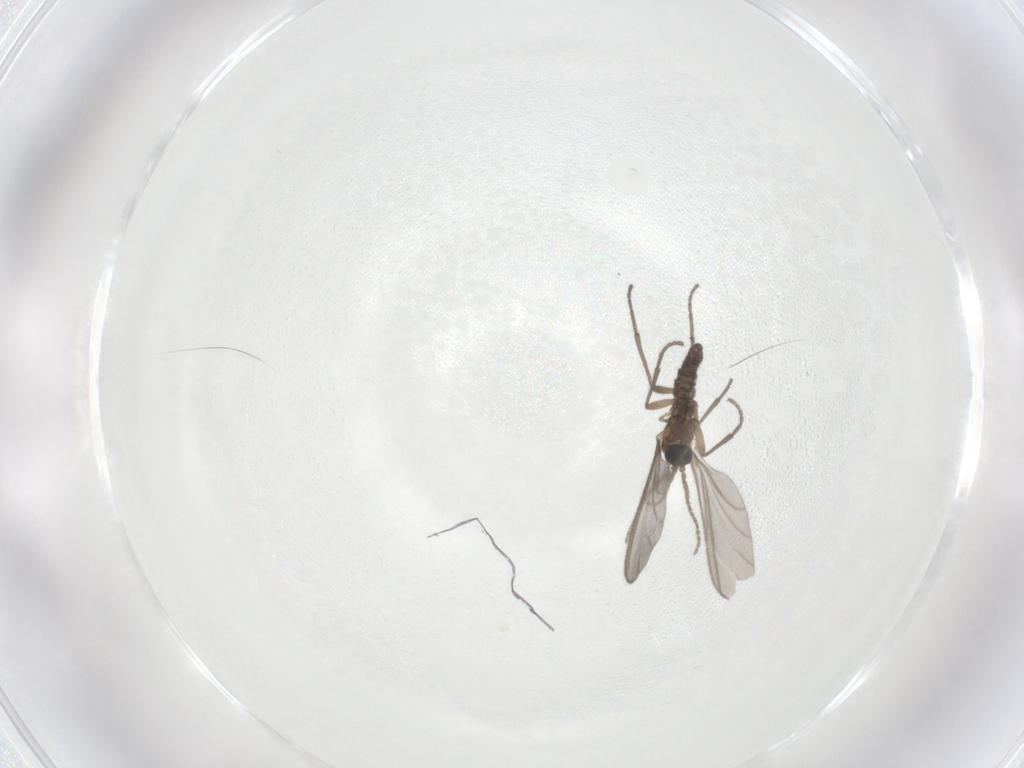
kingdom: Animalia
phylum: Arthropoda
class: Insecta
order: Diptera
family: Sciaridae
